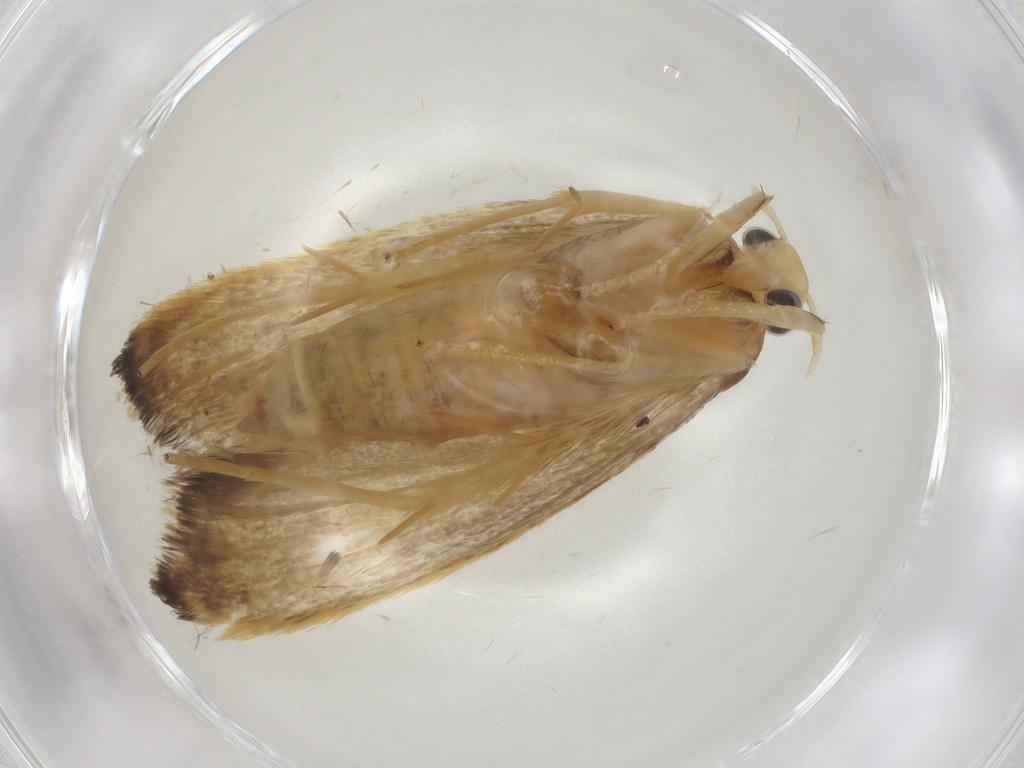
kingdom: Animalia
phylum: Arthropoda
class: Insecta
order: Lepidoptera
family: Lecithoceridae
